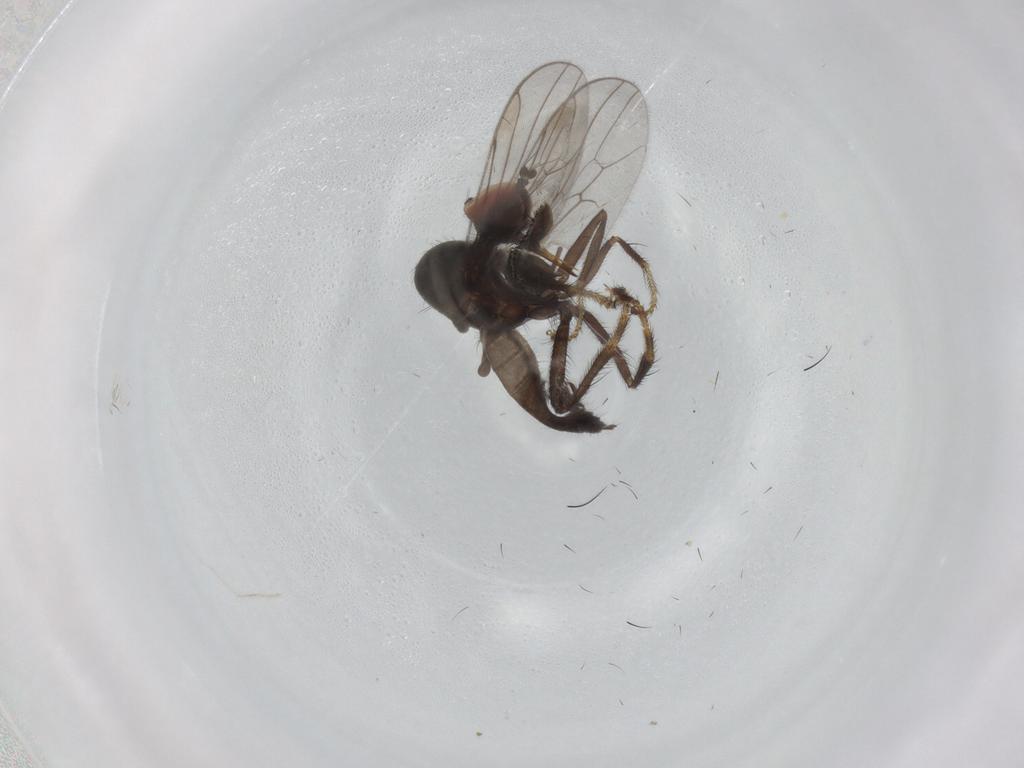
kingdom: Animalia
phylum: Arthropoda
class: Insecta
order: Diptera
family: Hybotidae
